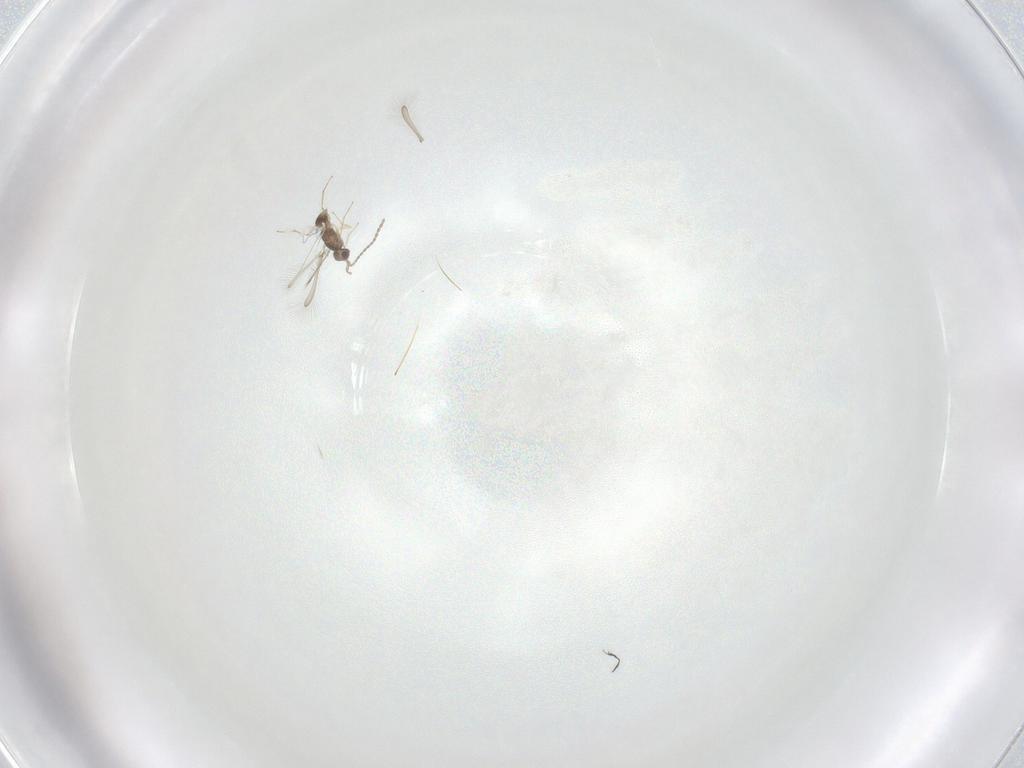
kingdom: Animalia
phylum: Arthropoda
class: Insecta
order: Hymenoptera
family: Mymaridae
